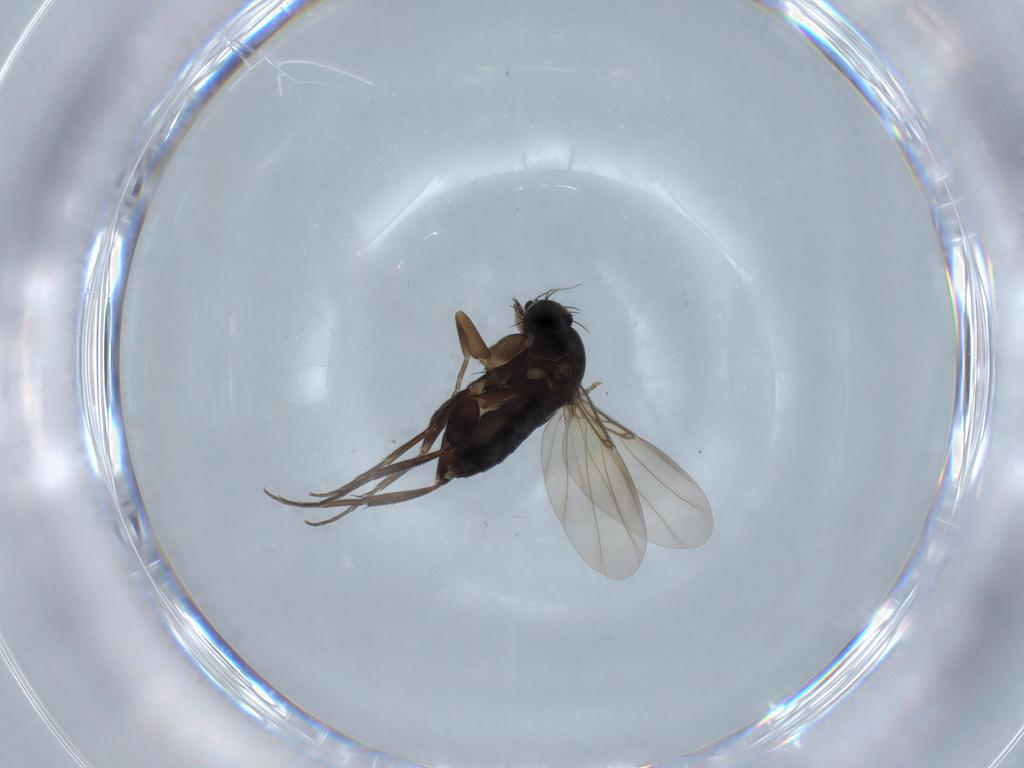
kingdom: Animalia
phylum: Arthropoda
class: Insecta
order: Diptera
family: Phoridae
